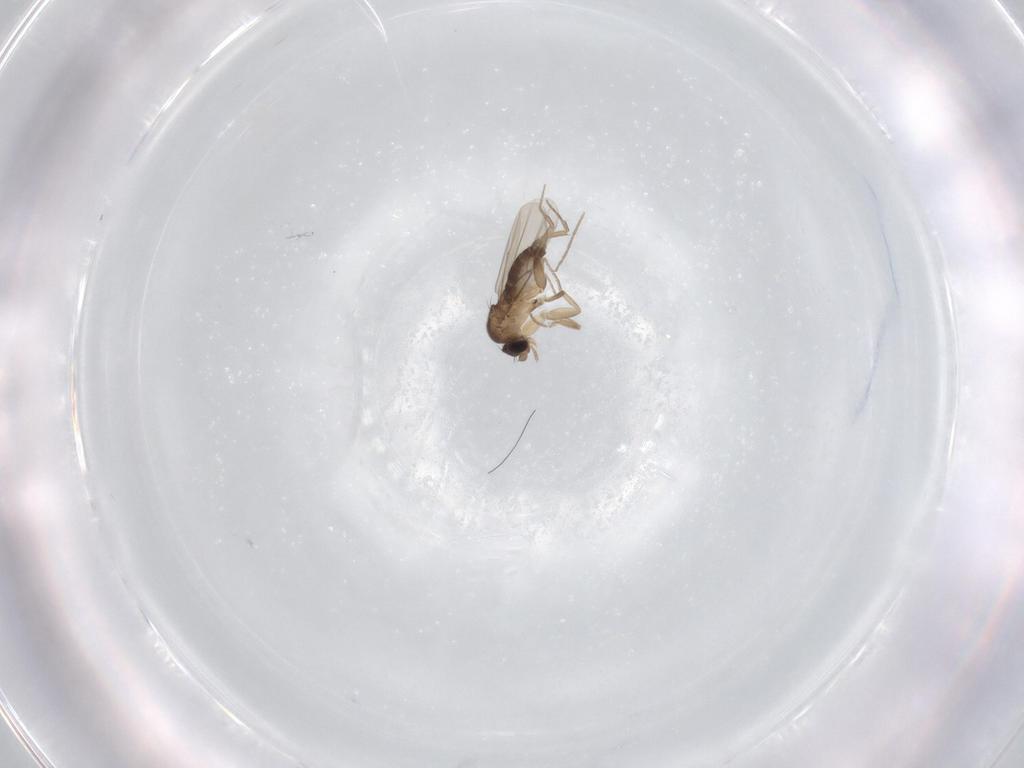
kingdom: Animalia
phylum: Arthropoda
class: Insecta
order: Diptera
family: Phoridae
